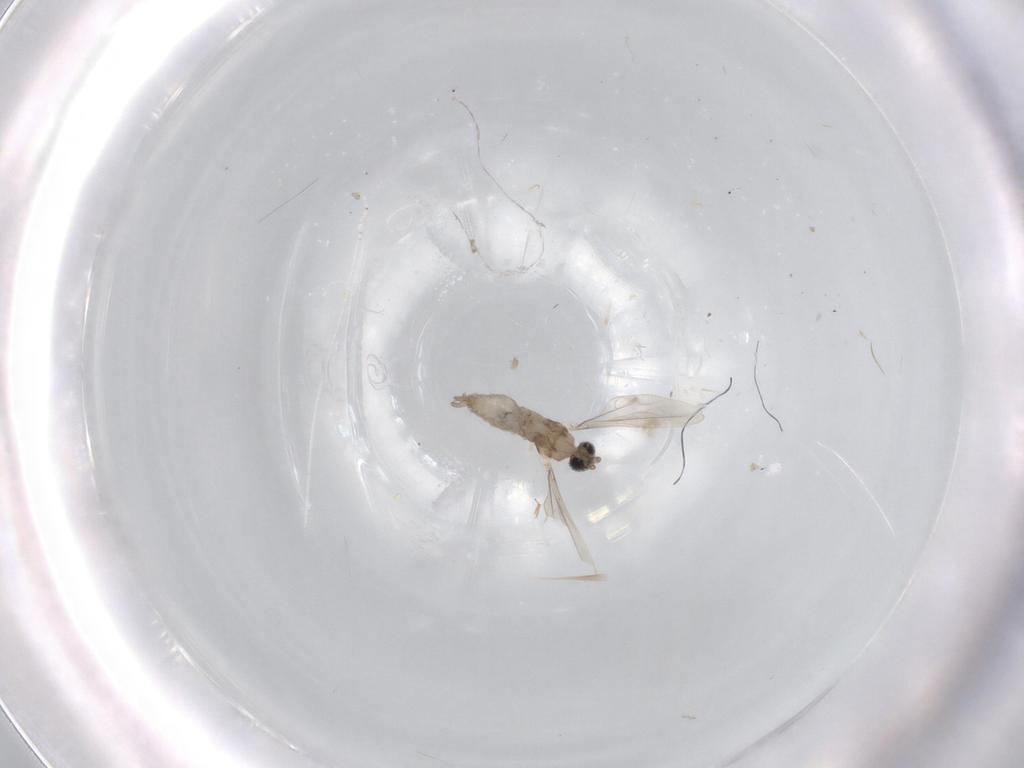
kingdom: Animalia
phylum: Arthropoda
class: Insecta
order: Diptera
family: Cecidomyiidae
